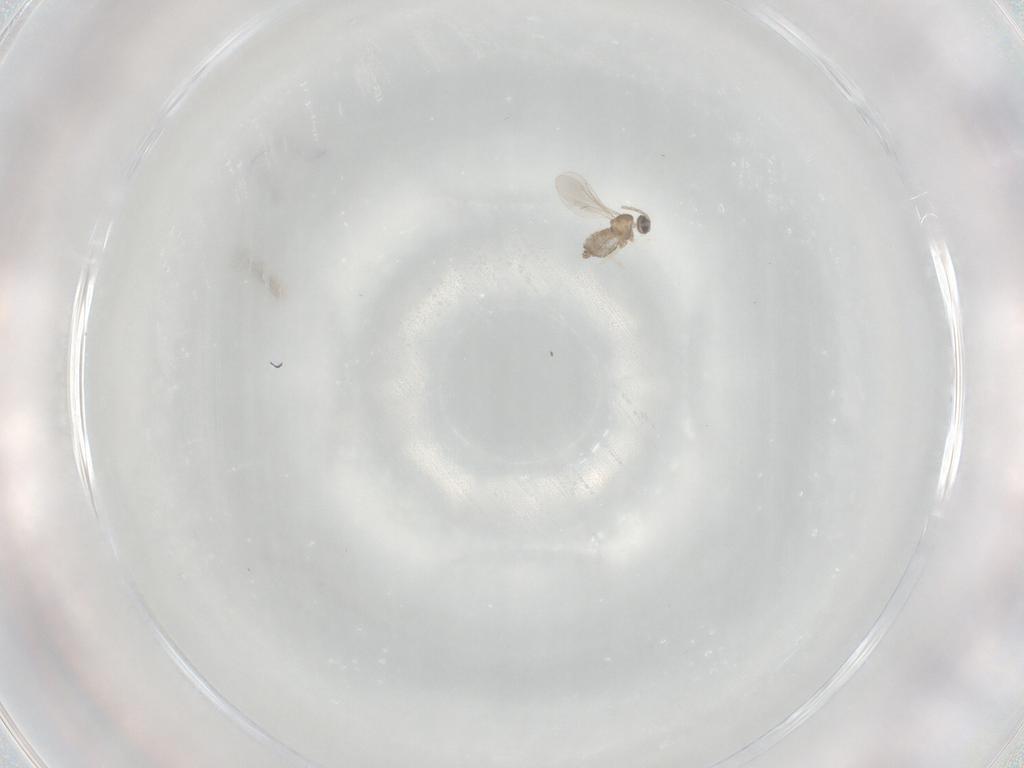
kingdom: Animalia
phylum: Arthropoda
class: Insecta
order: Diptera
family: Cecidomyiidae
